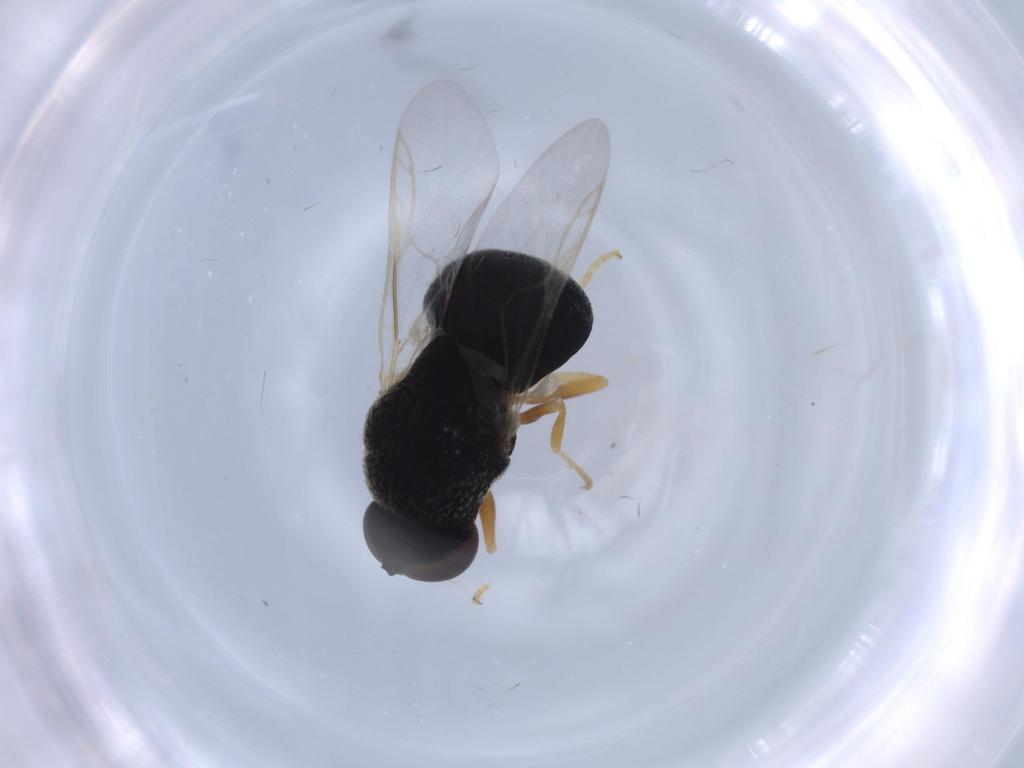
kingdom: Animalia
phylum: Arthropoda
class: Insecta
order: Diptera
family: Stratiomyidae
